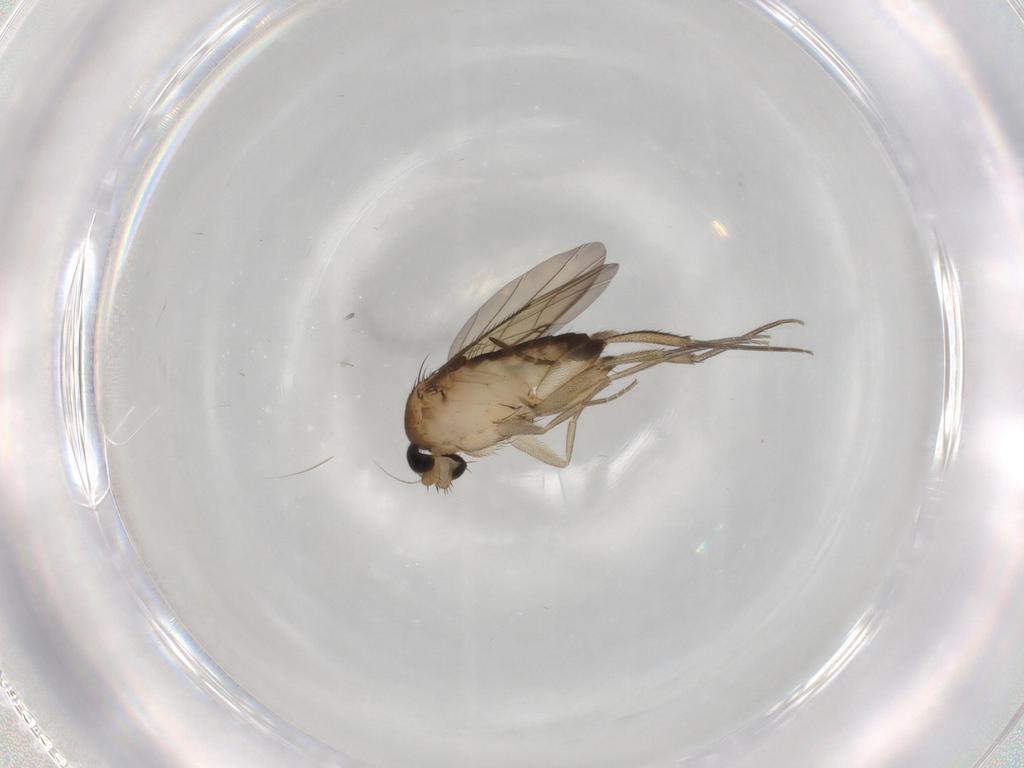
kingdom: Animalia
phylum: Arthropoda
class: Insecta
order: Diptera
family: Phoridae
